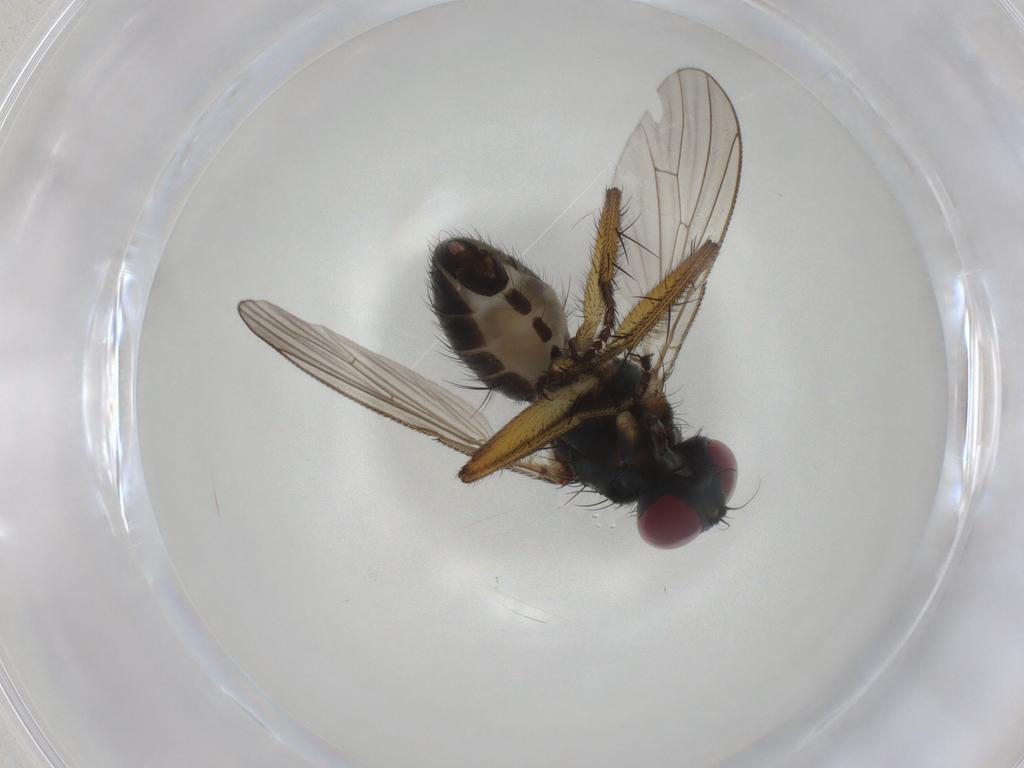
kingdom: Animalia
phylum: Arthropoda
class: Insecta
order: Diptera
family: Muscidae
